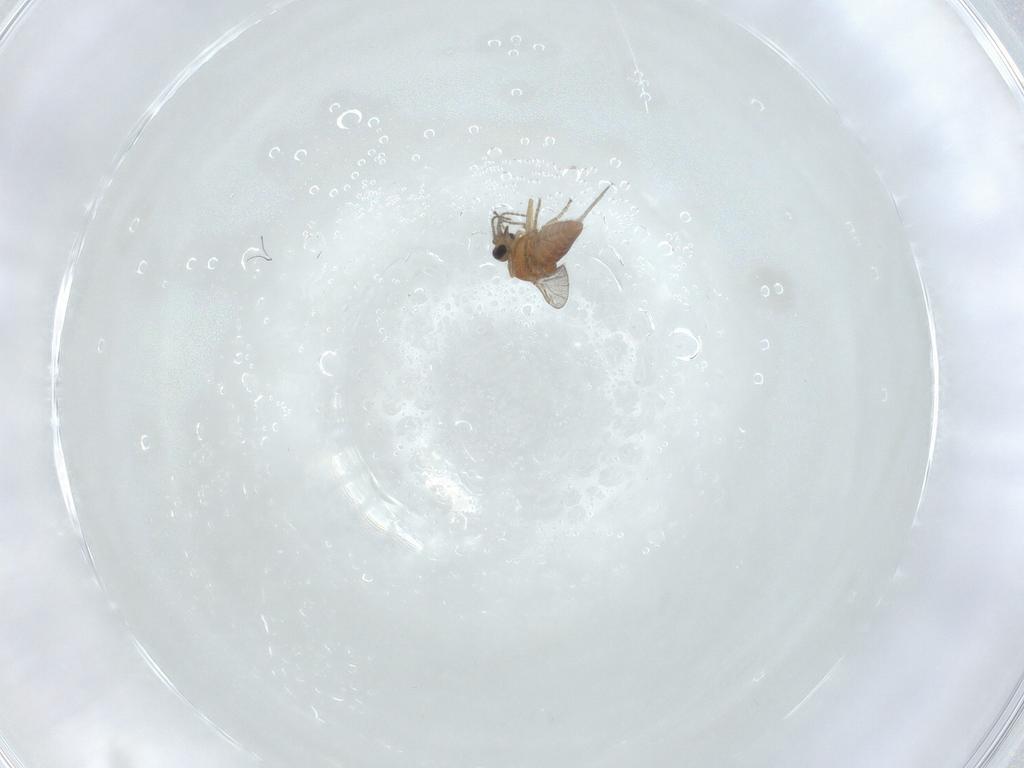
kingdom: Animalia
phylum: Arthropoda
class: Insecta
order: Diptera
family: Ceratopogonidae
